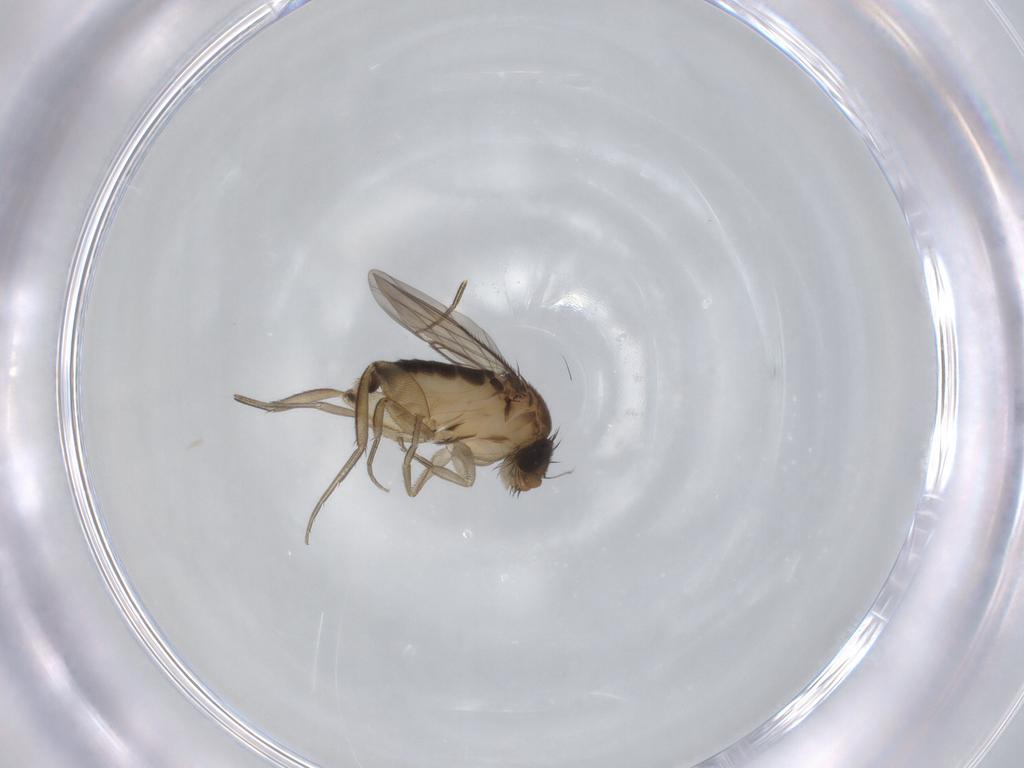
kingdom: Animalia
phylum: Arthropoda
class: Insecta
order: Diptera
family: Phoridae
